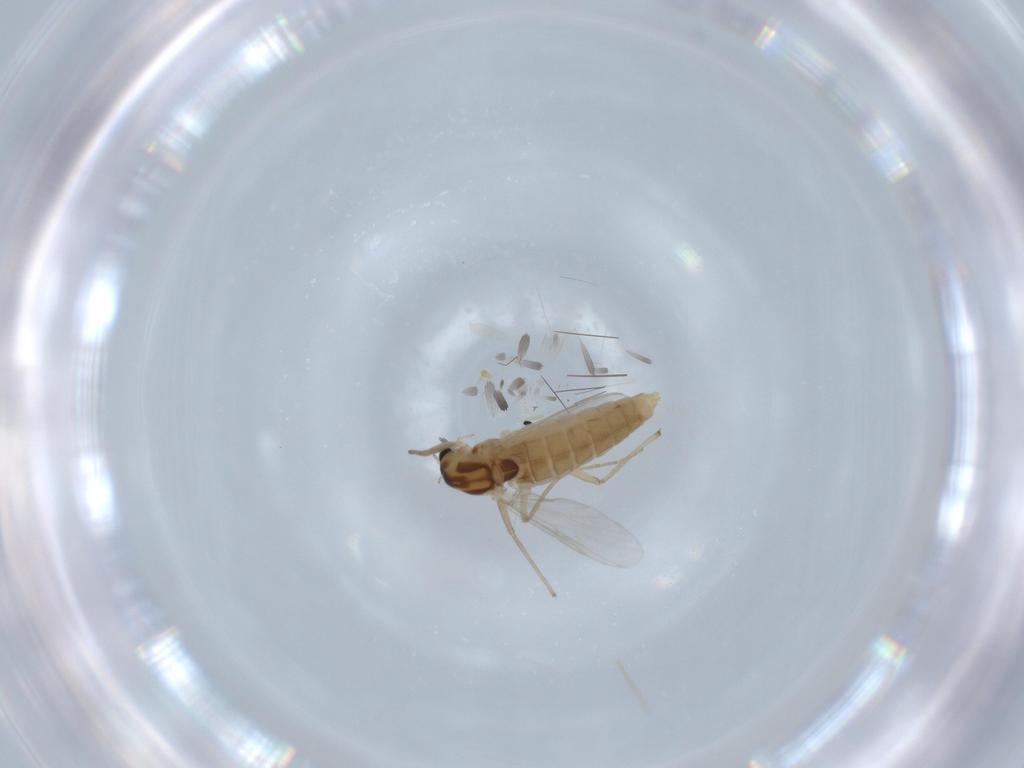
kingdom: Animalia
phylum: Arthropoda
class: Insecta
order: Diptera
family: Chironomidae
